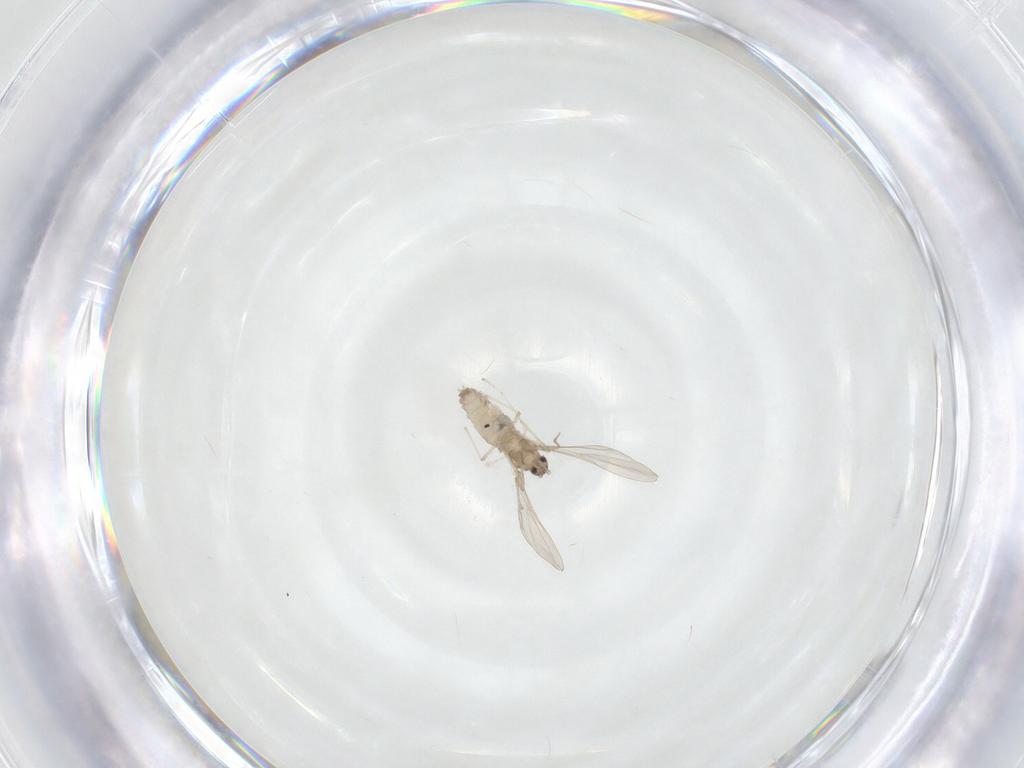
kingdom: Animalia
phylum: Arthropoda
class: Insecta
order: Diptera
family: Cecidomyiidae
